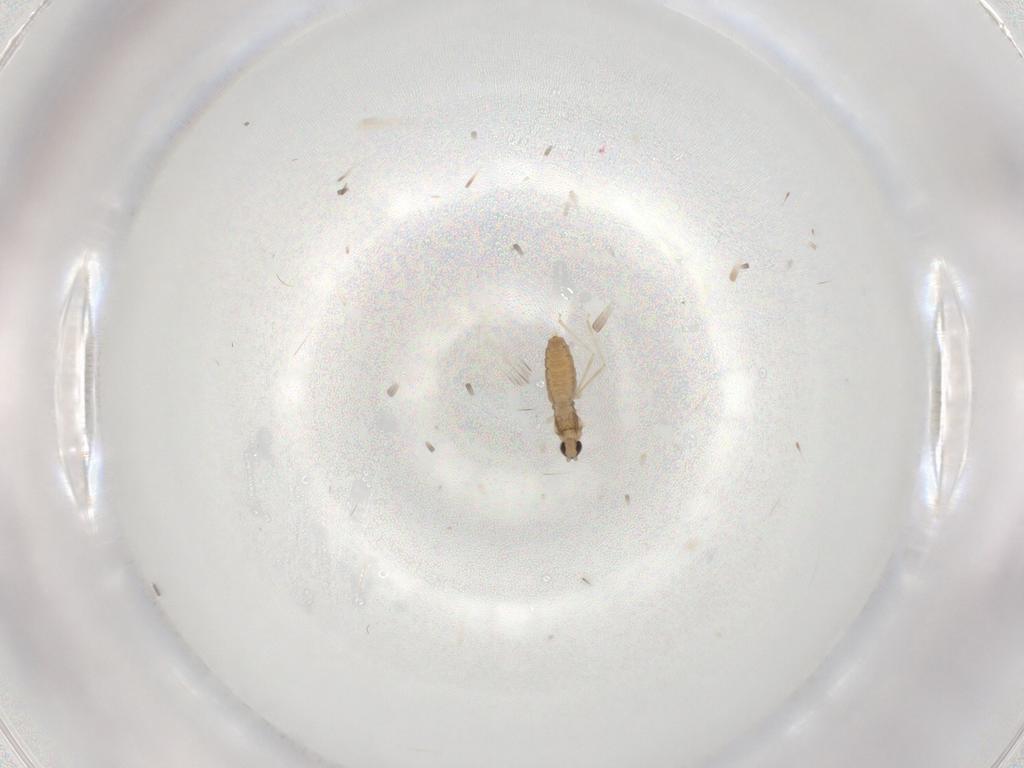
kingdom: Animalia
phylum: Arthropoda
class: Insecta
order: Diptera
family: Cecidomyiidae
